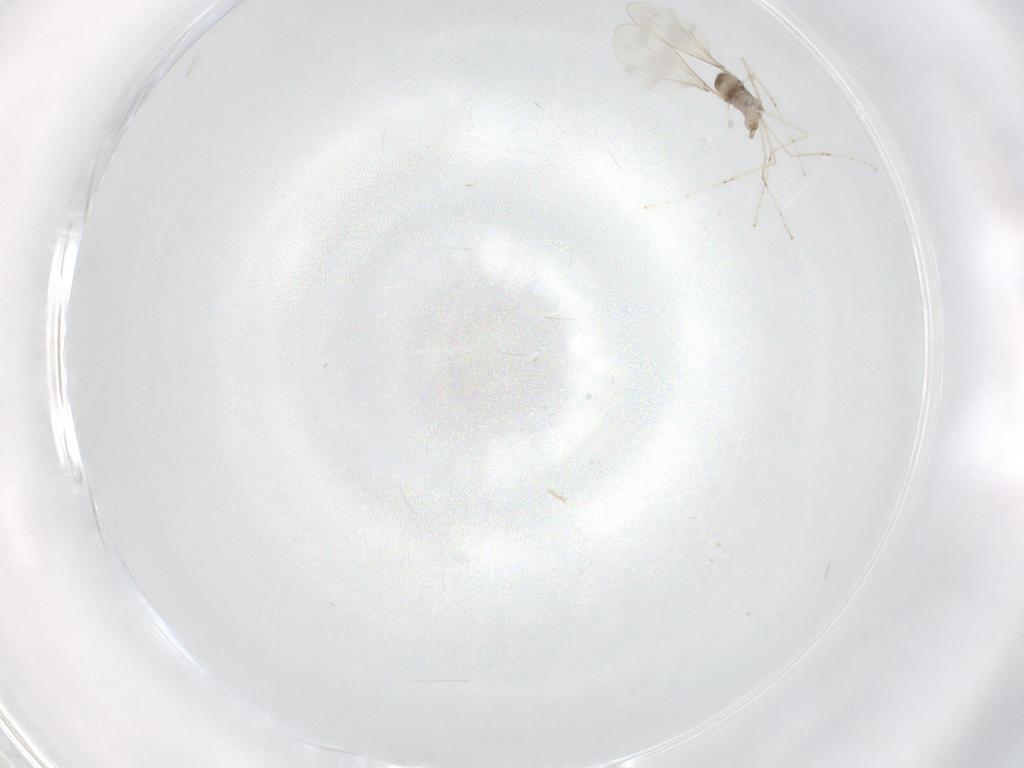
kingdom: Animalia
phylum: Arthropoda
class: Insecta
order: Diptera
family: Cecidomyiidae
